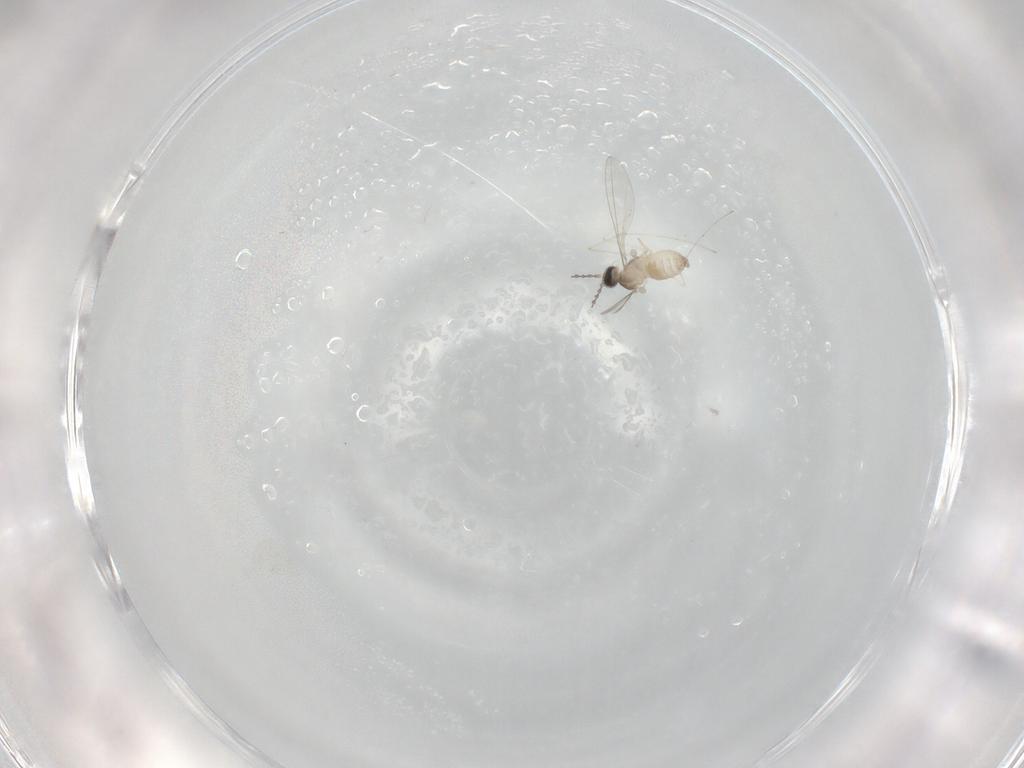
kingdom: Animalia
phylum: Arthropoda
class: Insecta
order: Diptera
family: Cecidomyiidae
